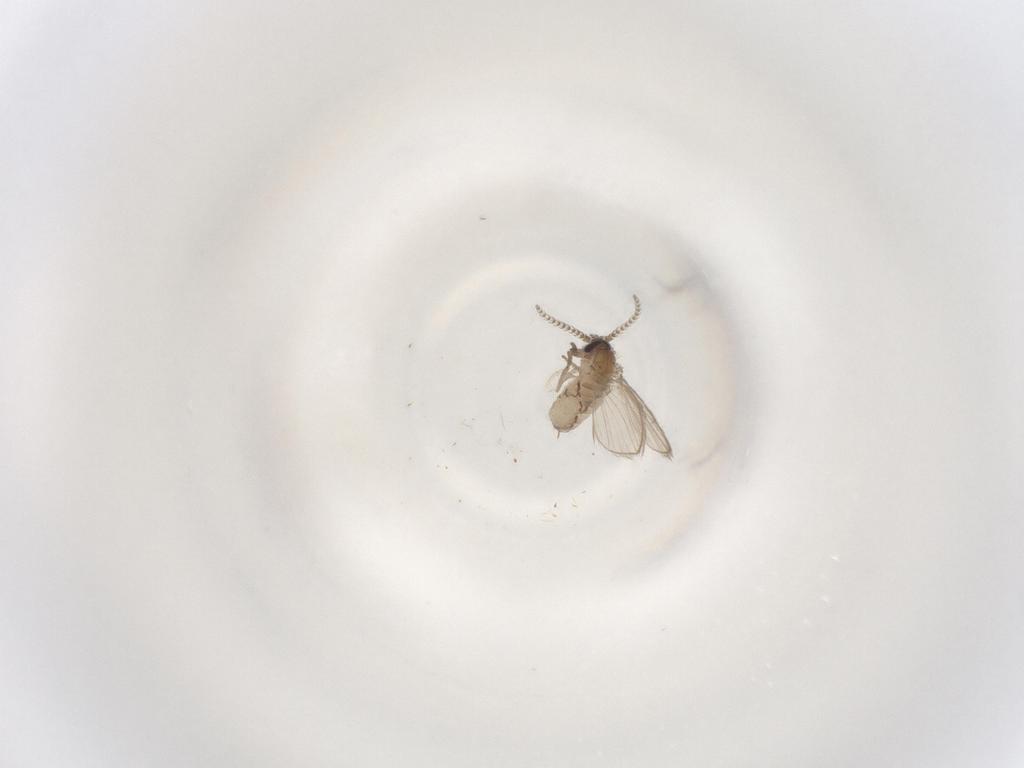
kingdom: Animalia
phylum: Arthropoda
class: Insecta
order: Diptera
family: Psychodidae
